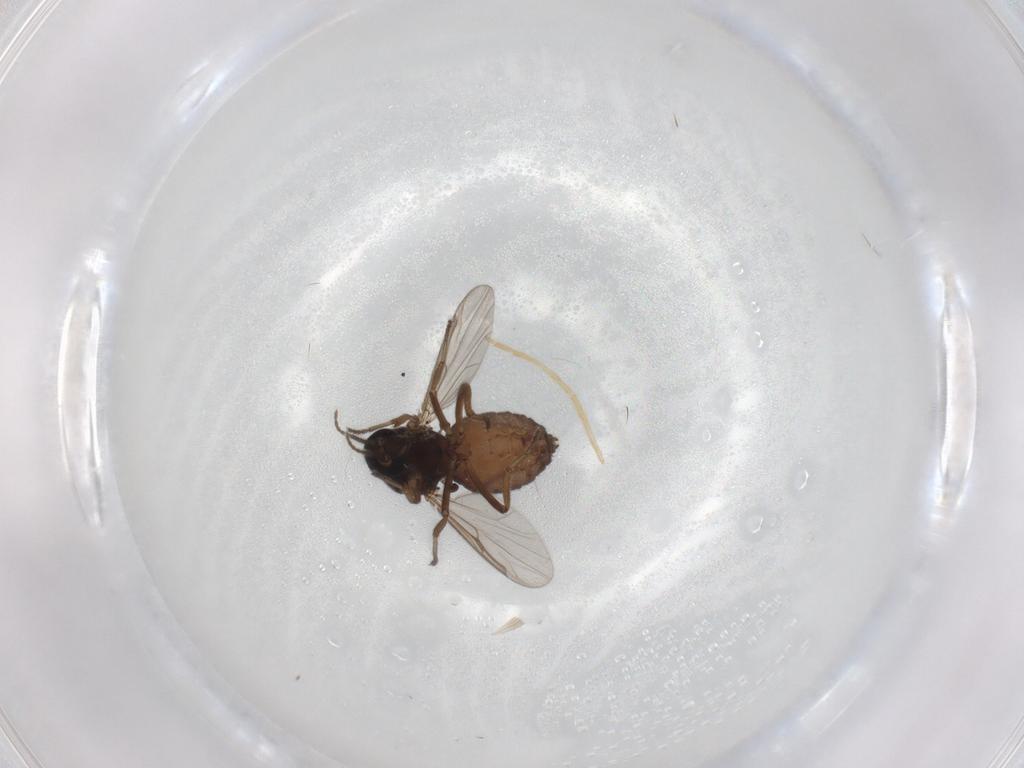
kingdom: Animalia
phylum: Arthropoda
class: Insecta
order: Diptera
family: Ceratopogonidae
